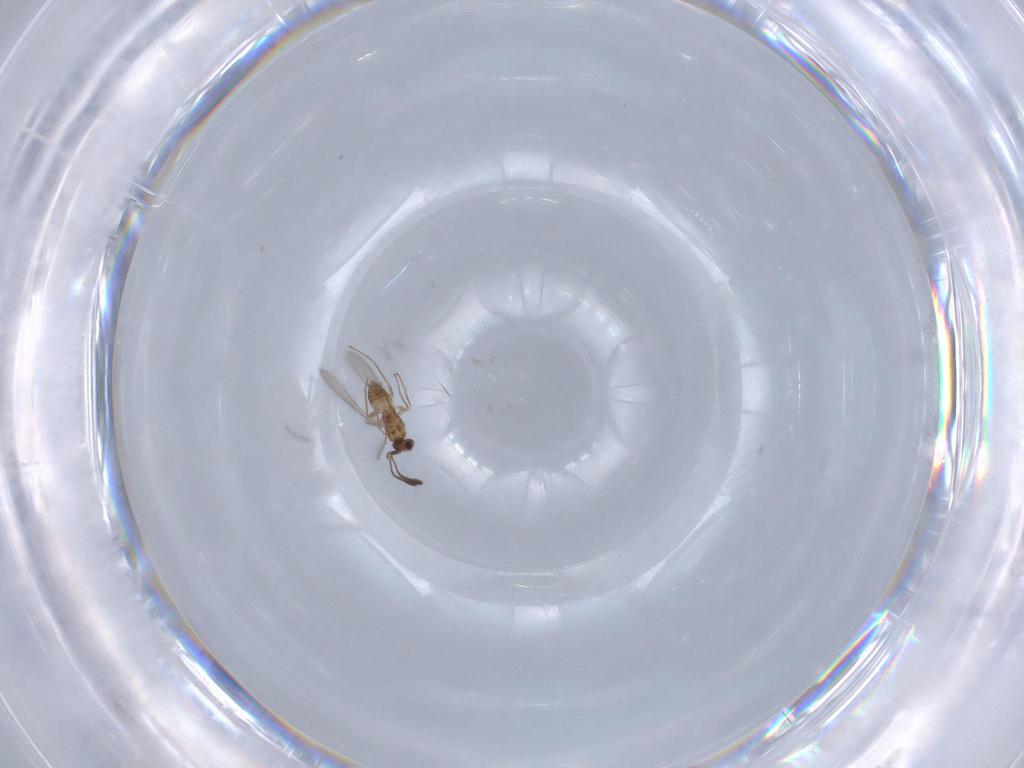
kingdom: Animalia
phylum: Arthropoda
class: Insecta
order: Hymenoptera
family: Mymaridae
